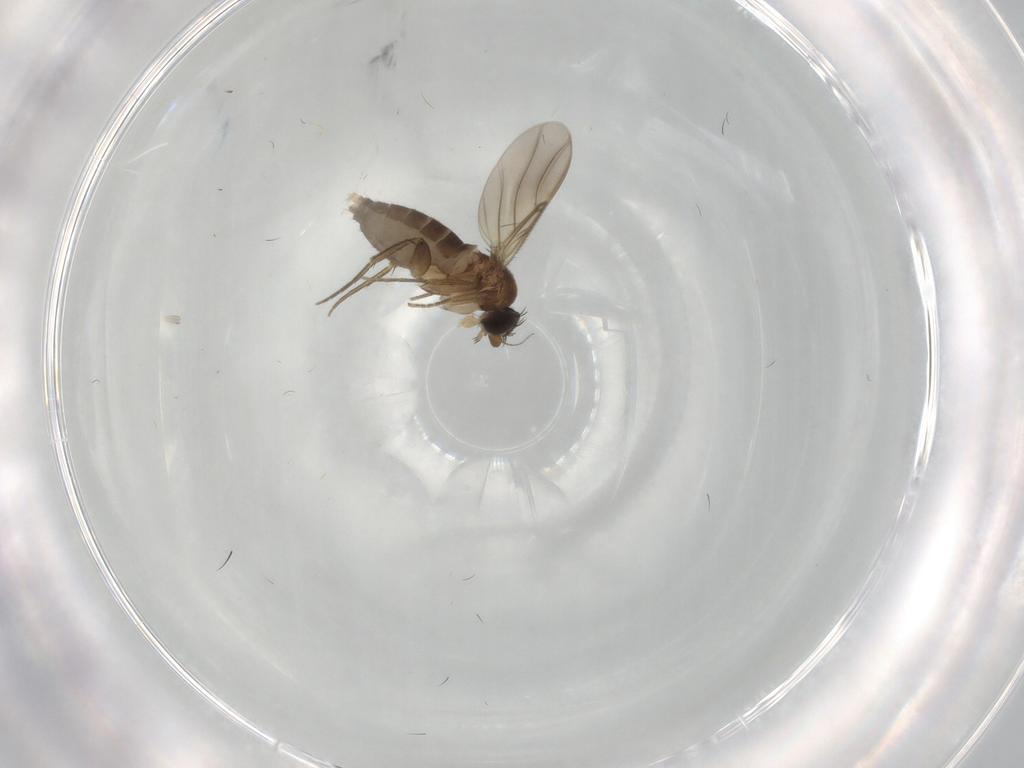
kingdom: Animalia
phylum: Arthropoda
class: Insecta
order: Diptera
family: Phoridae
